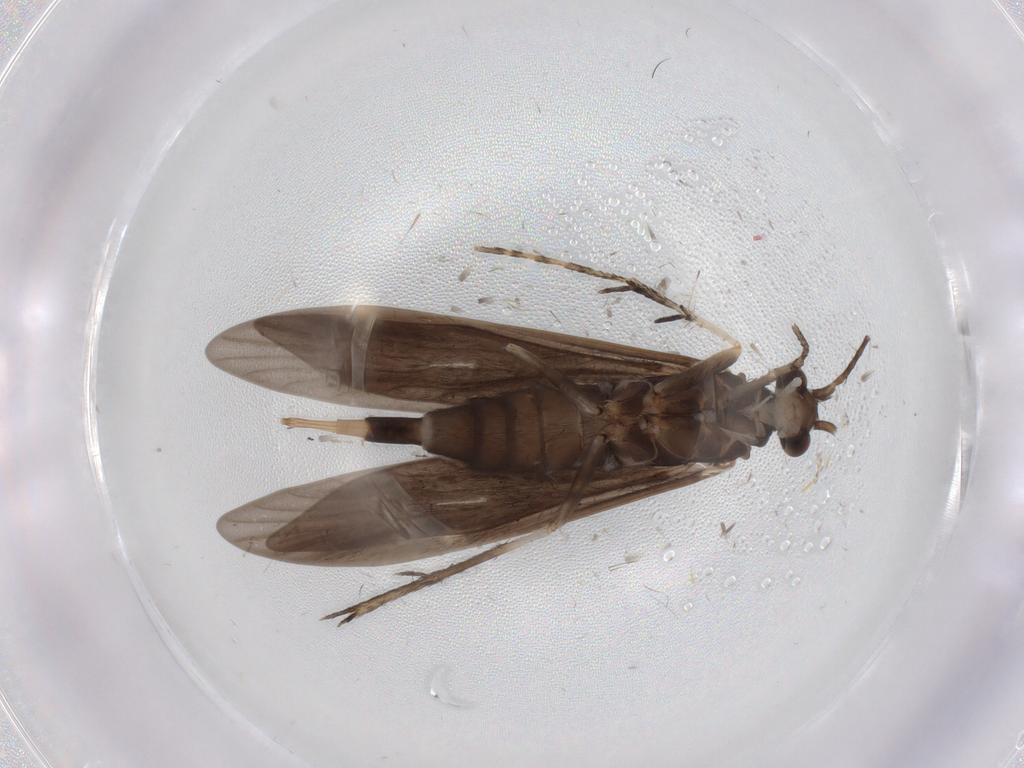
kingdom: Animalia
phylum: Arthropoda
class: Insecta
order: Trichoptera
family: Xiphocentronidae
